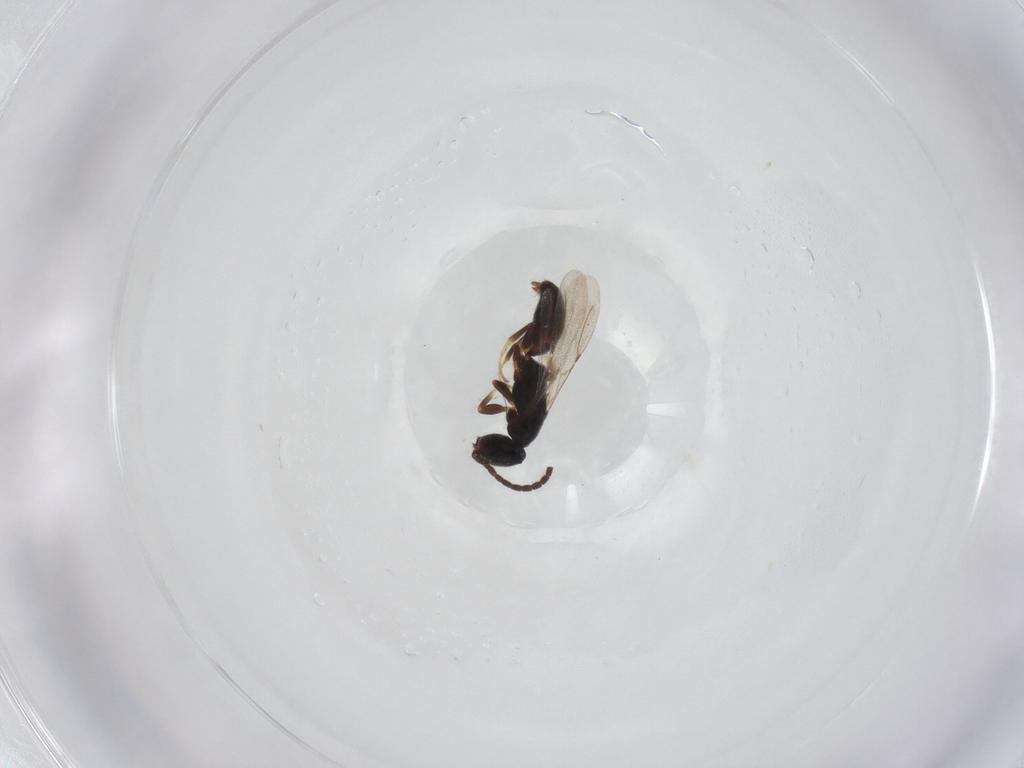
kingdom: Animalia
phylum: Arthropoda
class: Insecta
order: Hymenoptera
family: Bethylidae
